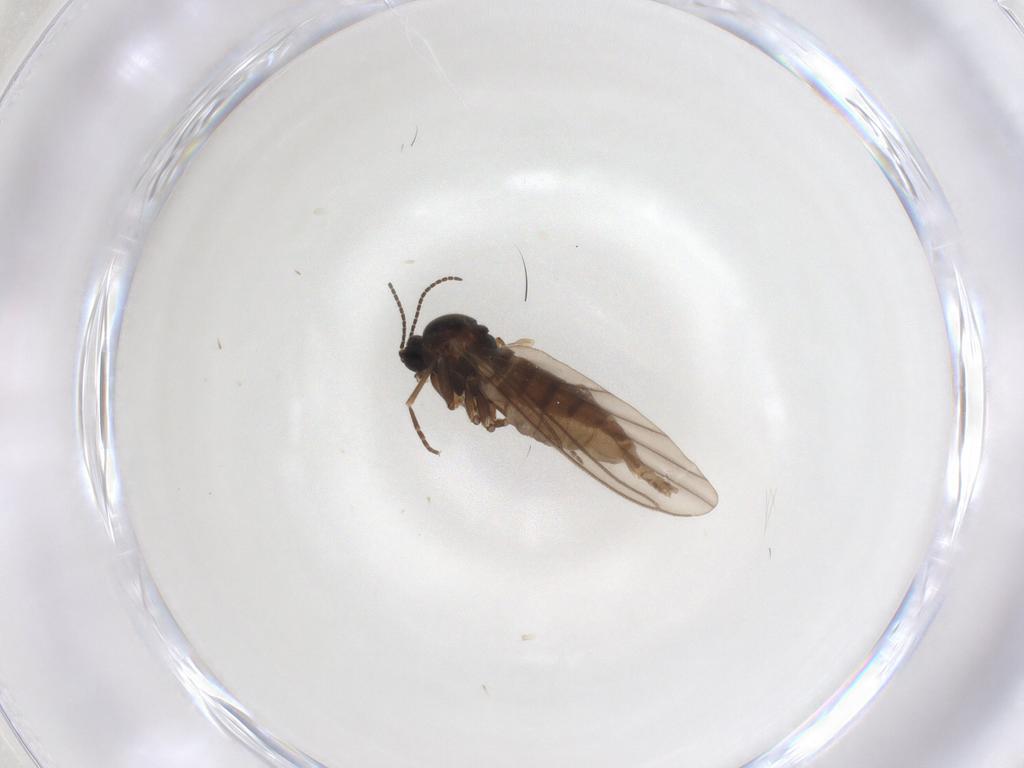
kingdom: Animalia
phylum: Arthropoda
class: Insecta
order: Diptera
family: Sciaridae
